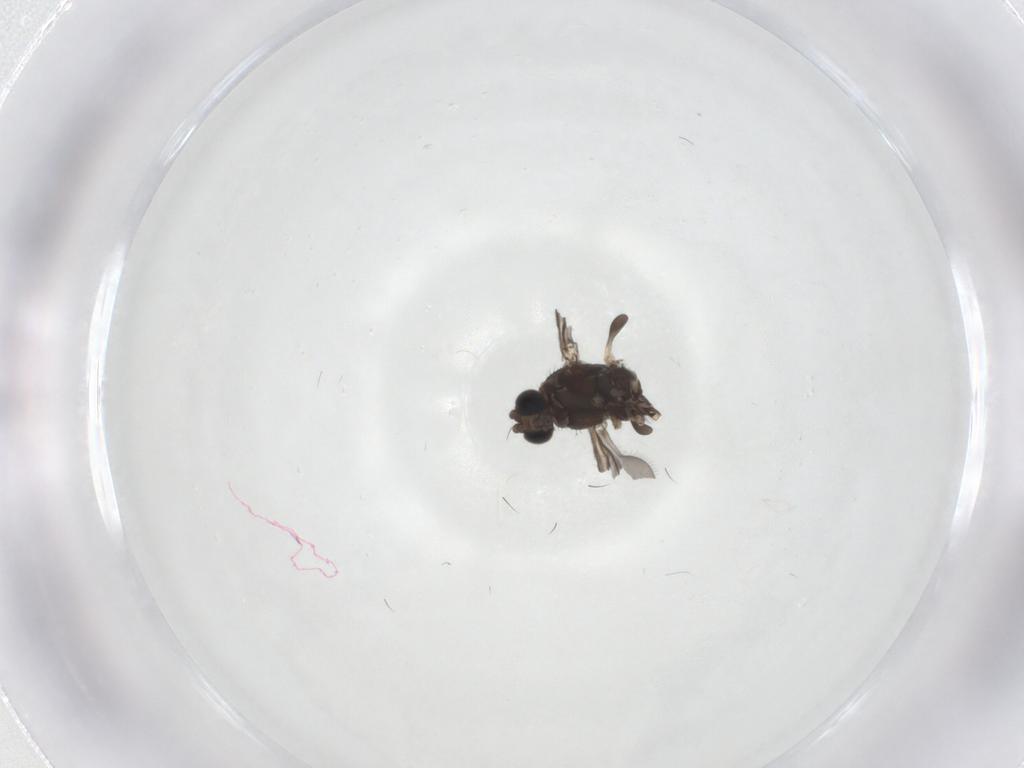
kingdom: Animalia
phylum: Arthropoda
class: Insecta
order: Diptera
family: Sciaridae
